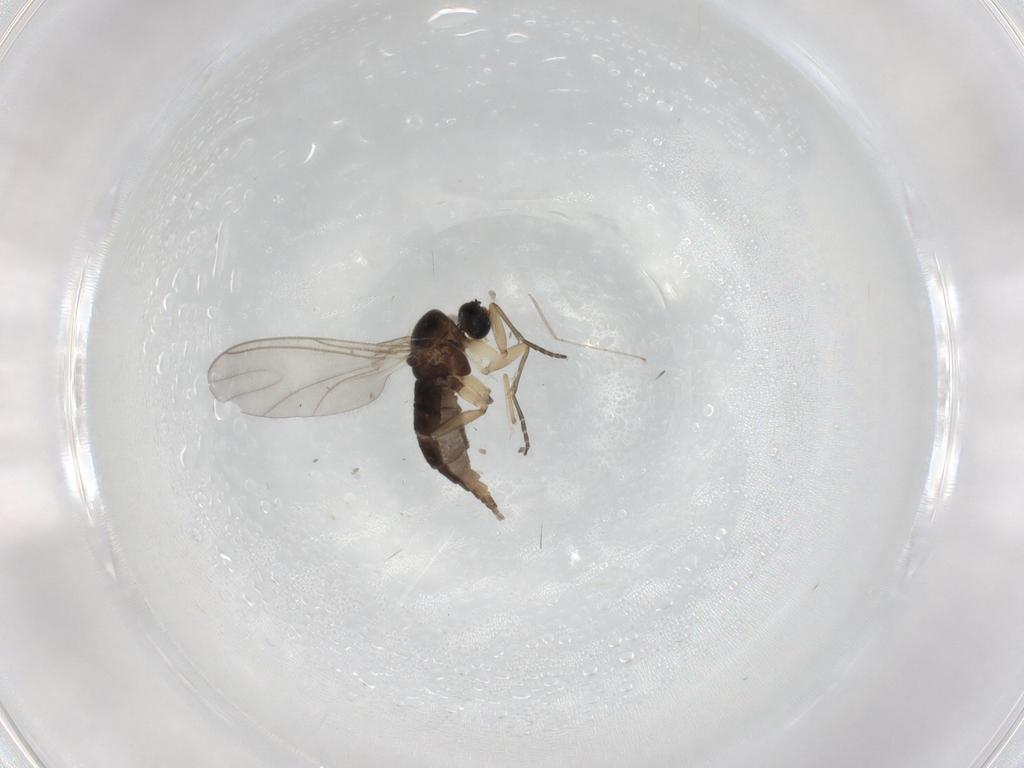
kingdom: Animalia
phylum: Arthropoda
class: Insecta
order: Diptera
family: Sciaridae
